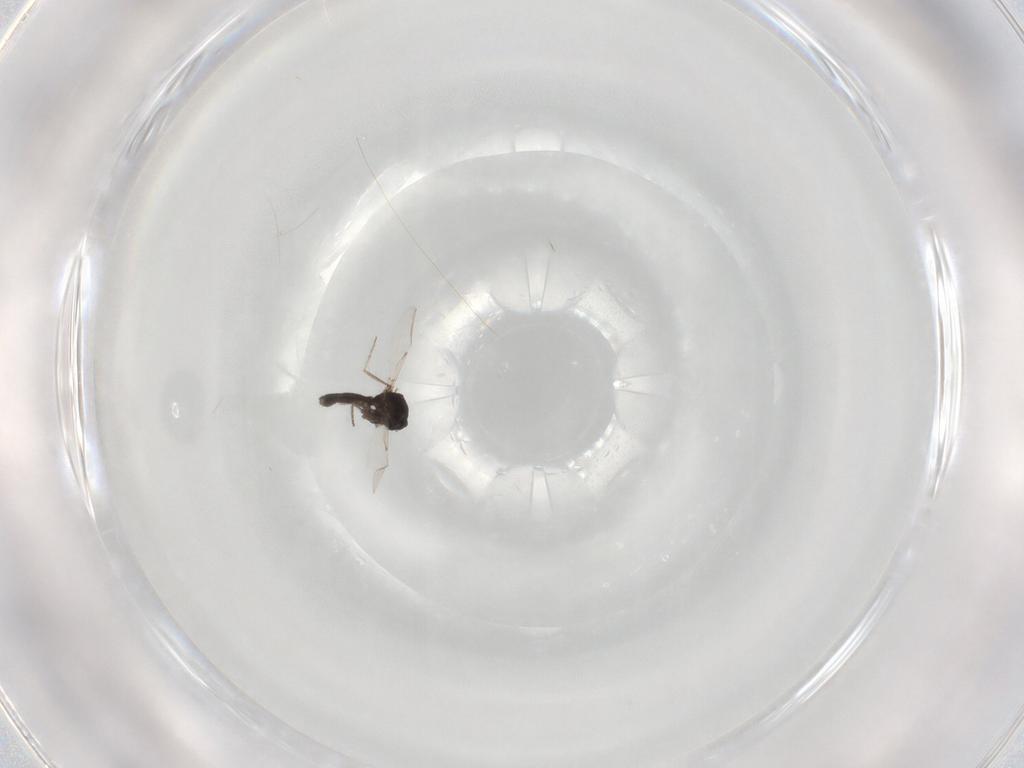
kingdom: Animalia
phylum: Arthropoda
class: Insecta
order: Diptera
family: Ceratopogonidae
